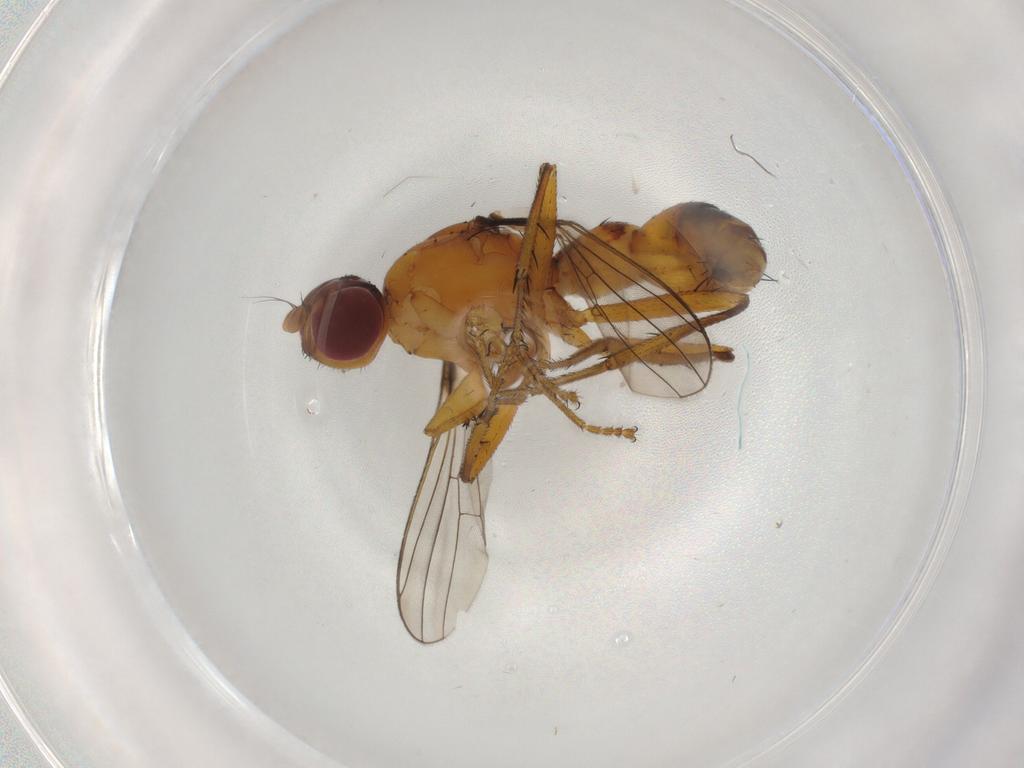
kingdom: Animalia
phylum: Arthropoda
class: Insecta
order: Diptera
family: Sepsidae
